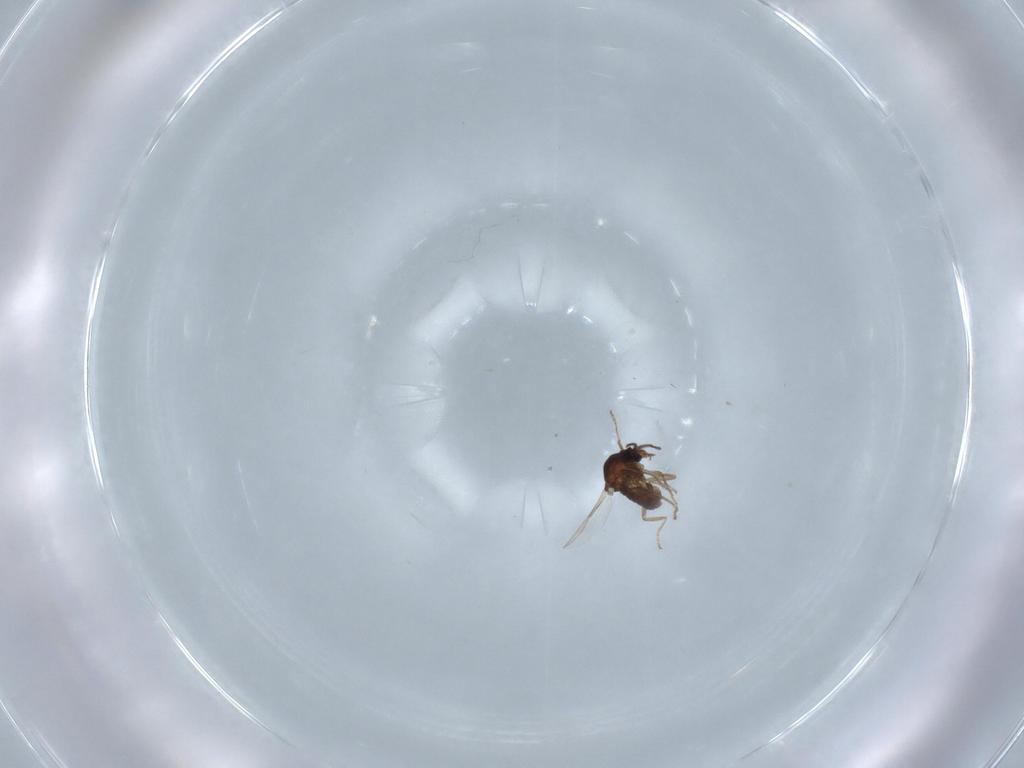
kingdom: Animalia
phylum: Arthropoda
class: Insecta
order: Diptera
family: Ceratopogonidae
